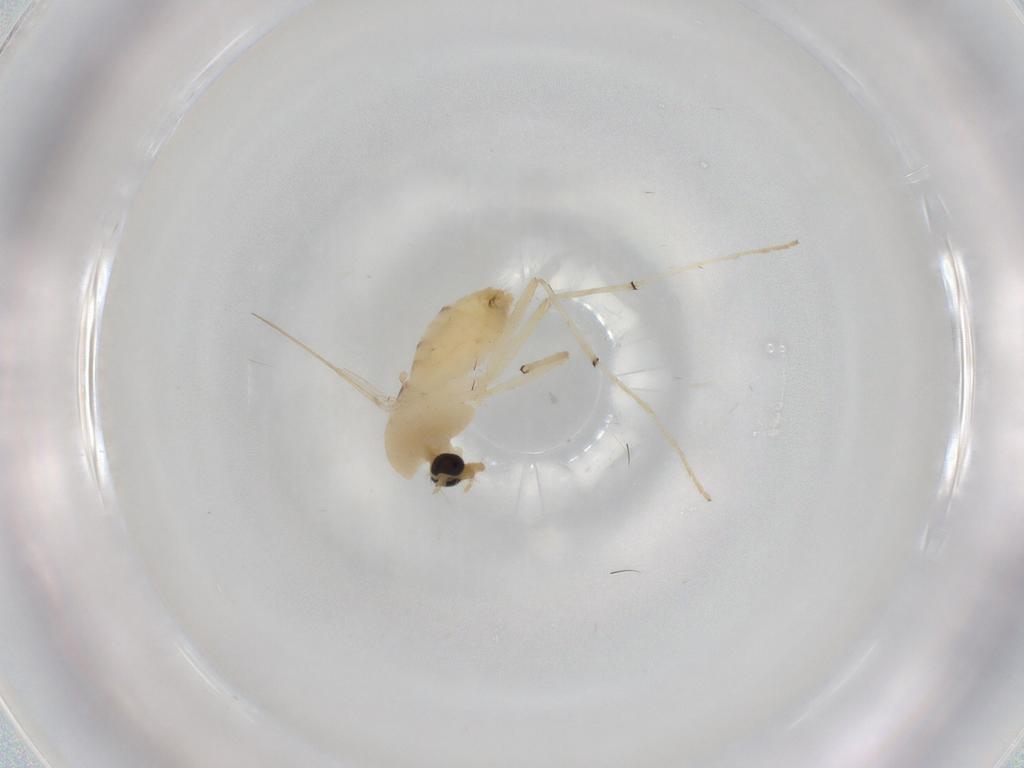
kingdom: Animalia
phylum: Arthropoda
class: Insecta
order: Diptera
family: Chironomidae
